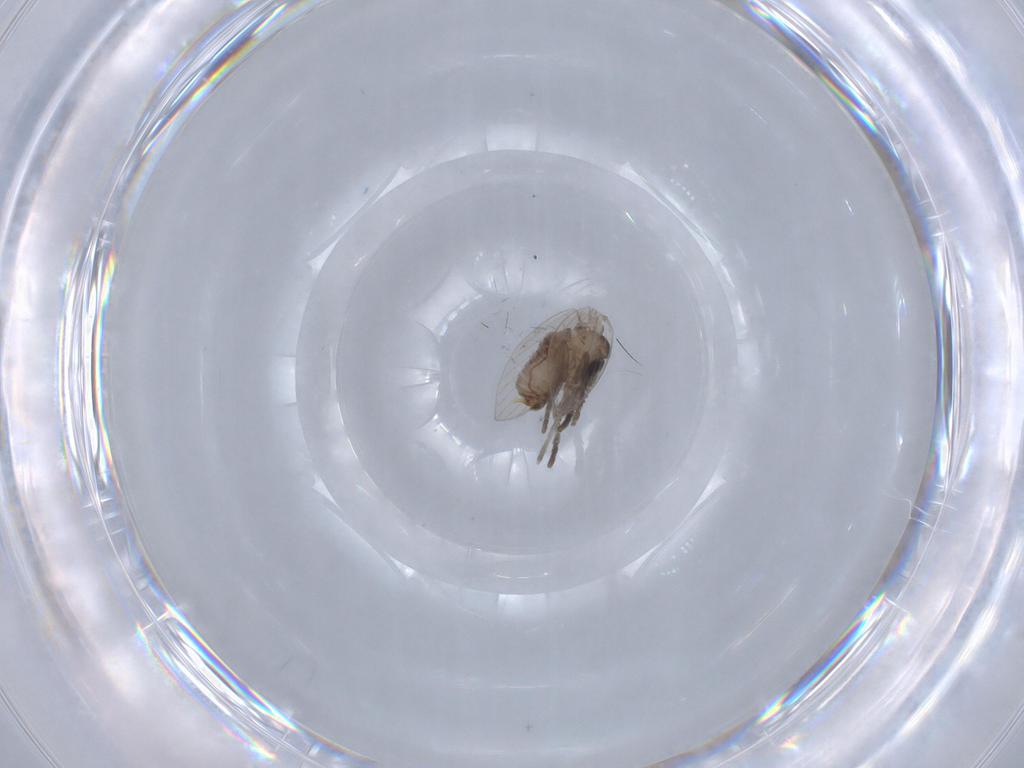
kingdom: Animalia
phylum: Arthropoda
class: Insecta
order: Diptera
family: Psychodidae
